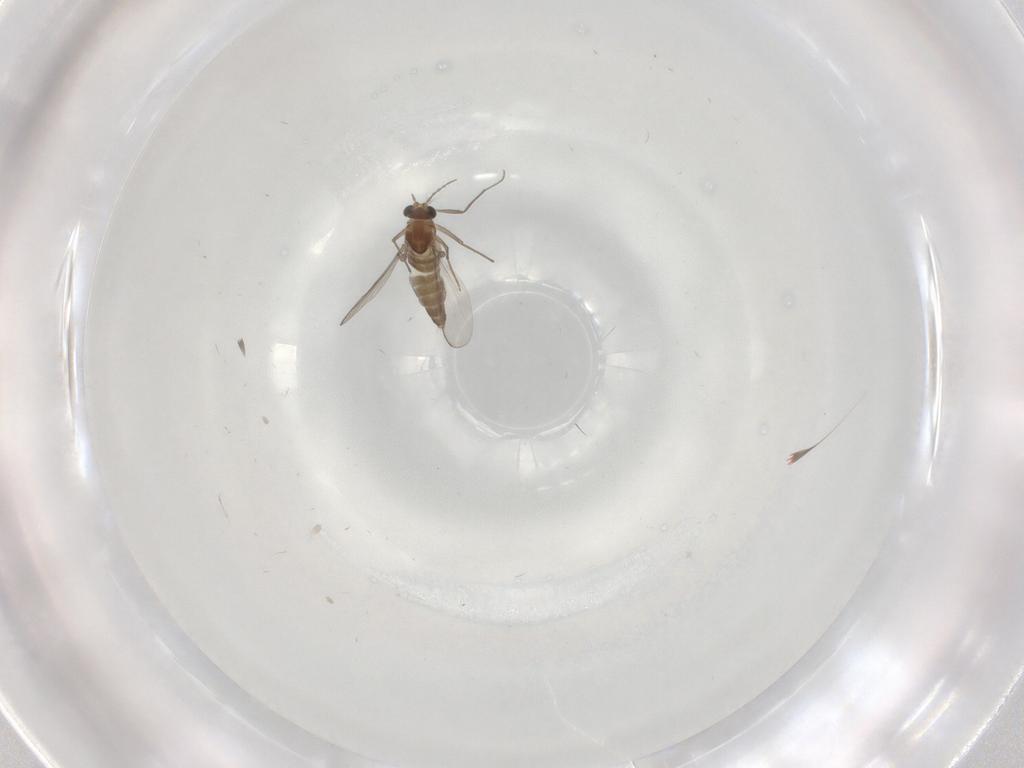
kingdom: Animalia
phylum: Arthropoda
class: Insecta
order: Diptera
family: Chironomidae
